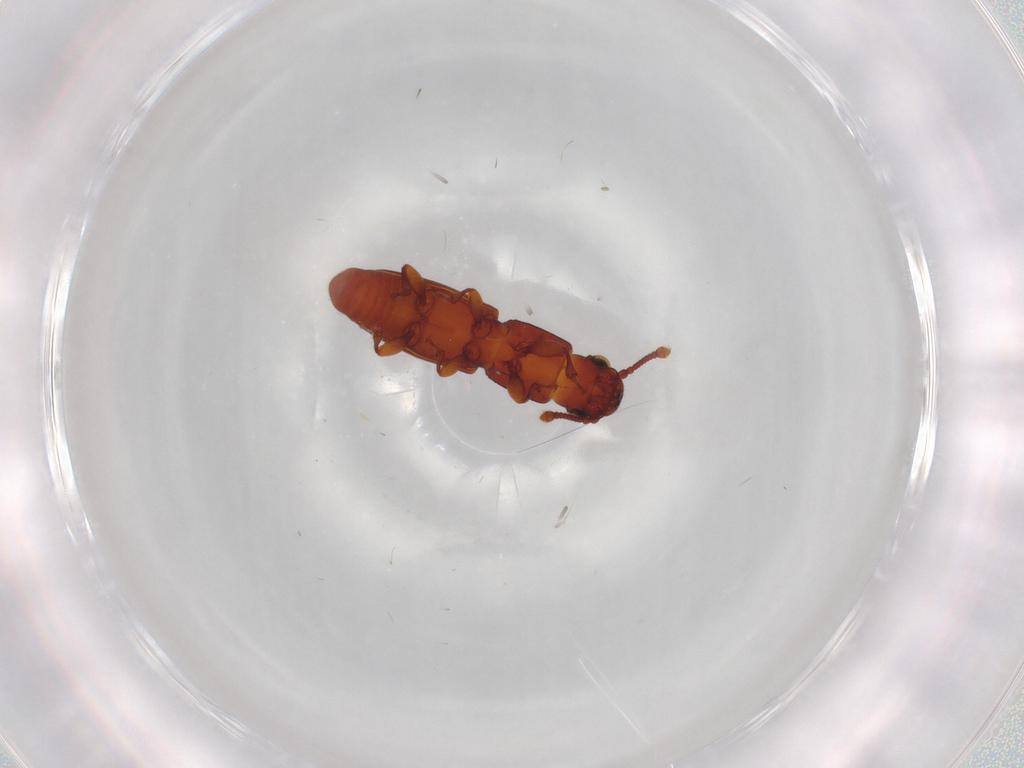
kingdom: Animalia
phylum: Arthropoda
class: Insecta
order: Coleoptera
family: Monotomidae
